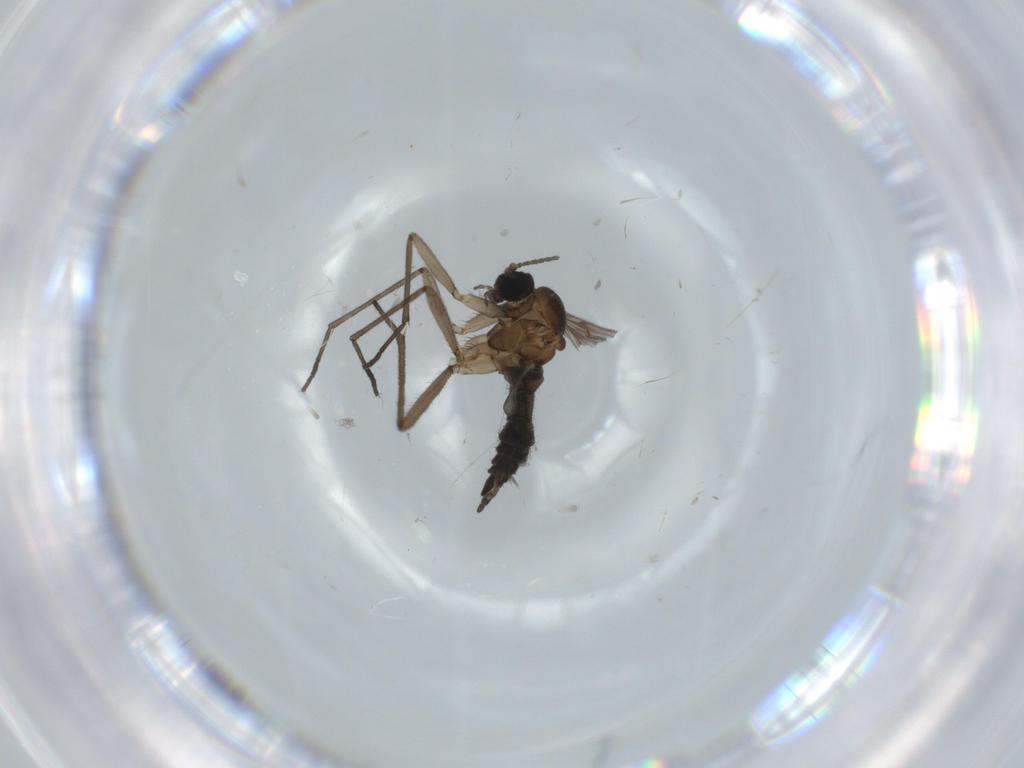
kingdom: Animalia
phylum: Arthropoda
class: Insecta
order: Diptera
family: Sciaridae
